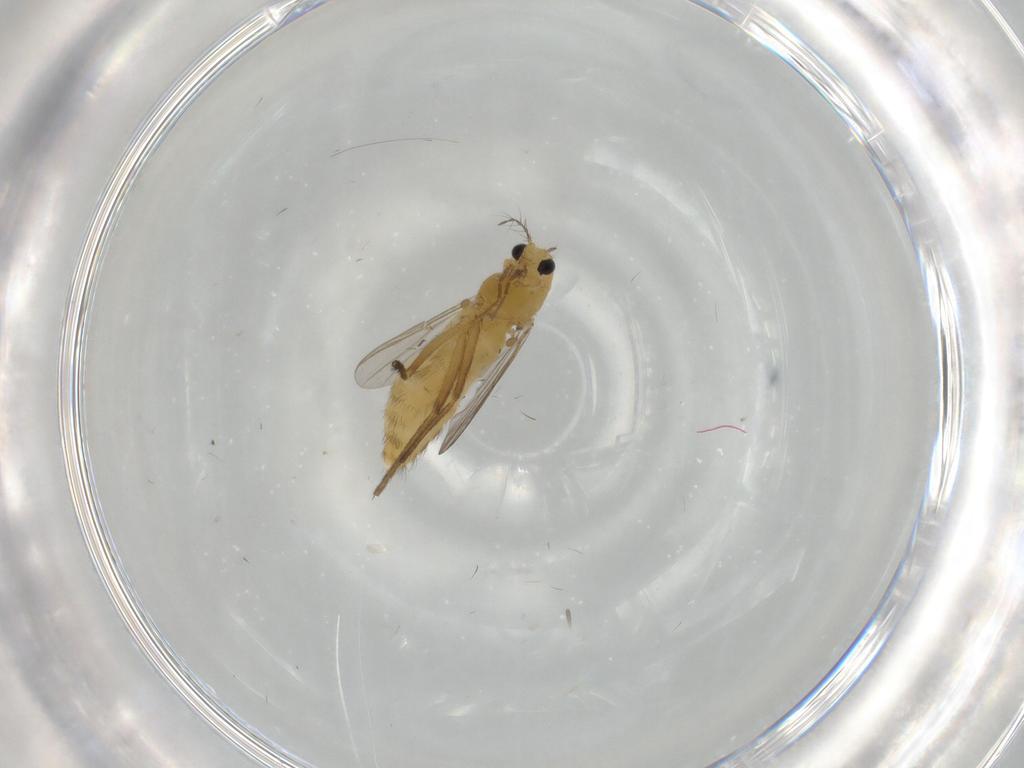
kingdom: Animalia
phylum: Arthropoda
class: Insecta
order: Diptera
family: Chironomidae
